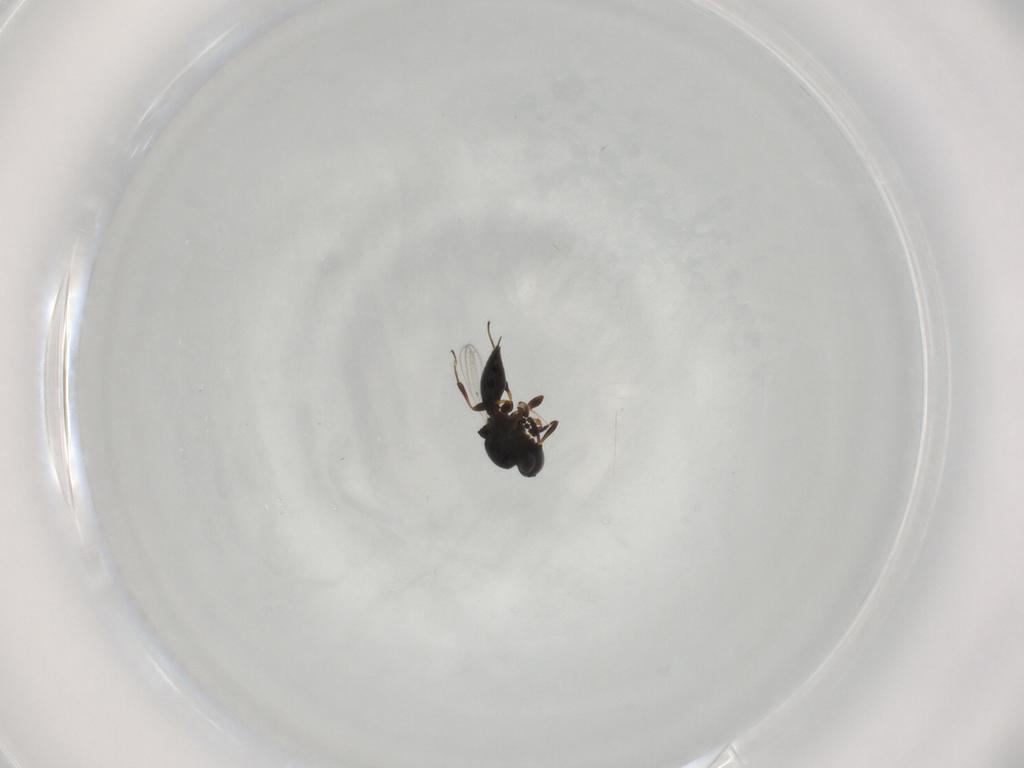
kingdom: Animalia
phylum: Arthropoda
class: Insecta
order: Hymenoptera
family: Platygastridae
